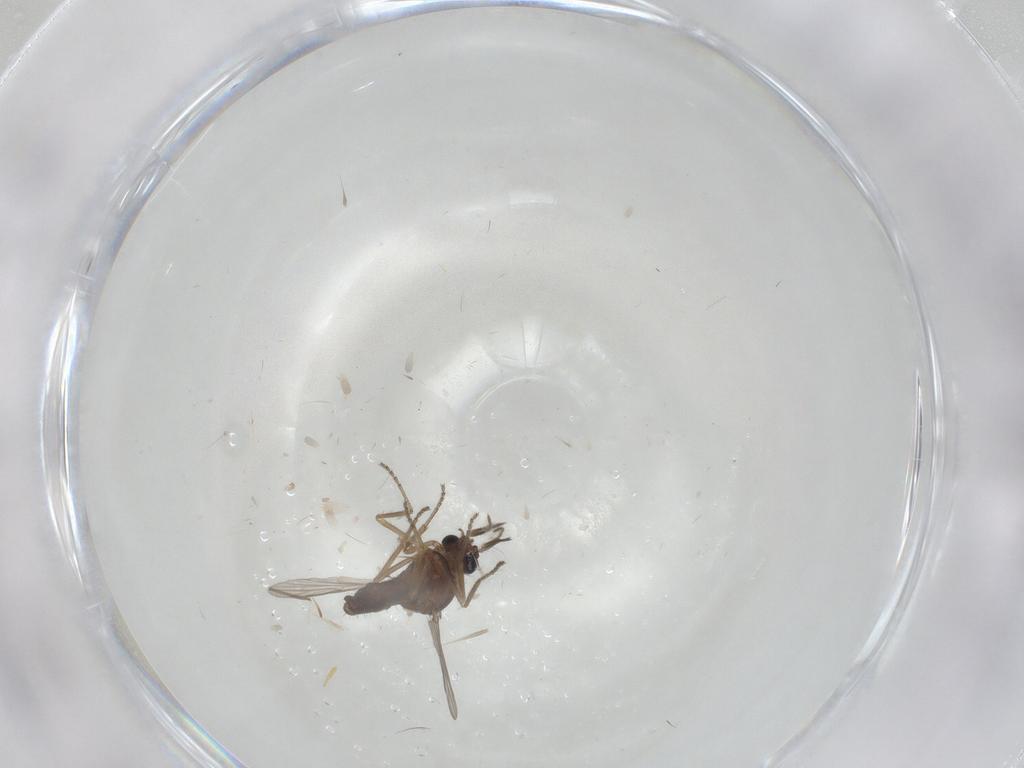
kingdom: Animalia
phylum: Arthropoda
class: Insecta
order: Diptera
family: Ceratopogonidae
